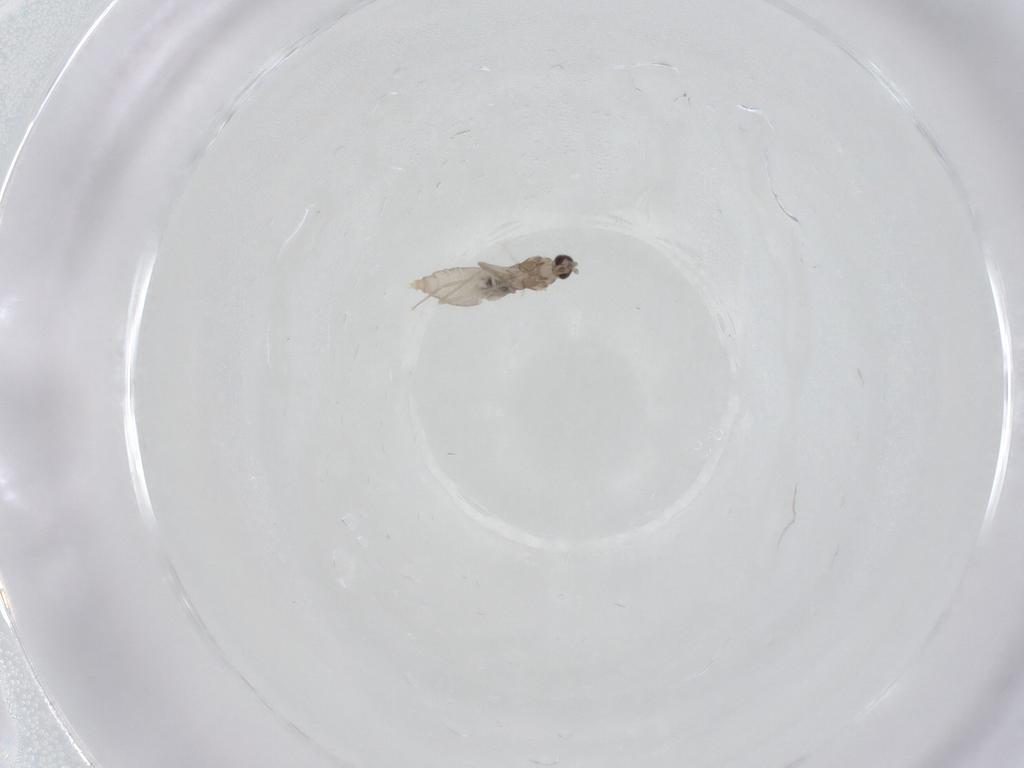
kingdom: Animalia
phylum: Arthropoda
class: Insecta
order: Diptera
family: Cecidomyiidae
